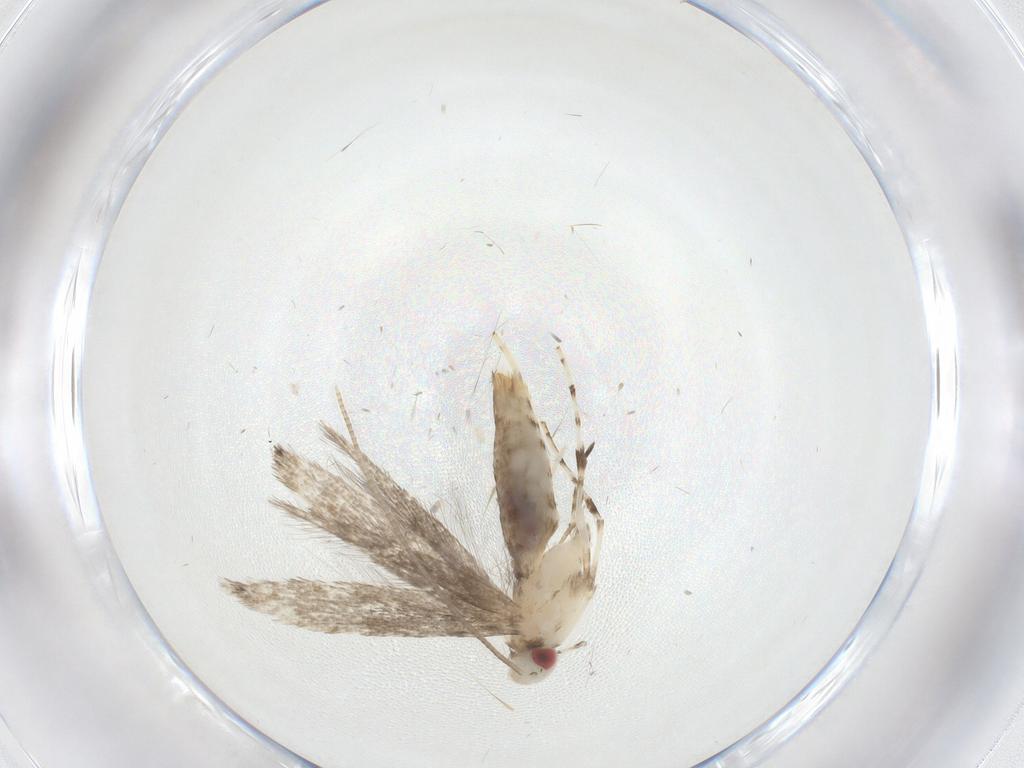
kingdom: Animalia
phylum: Arthropoda
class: Insecta
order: Lepidoptera
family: Gracillariidae
